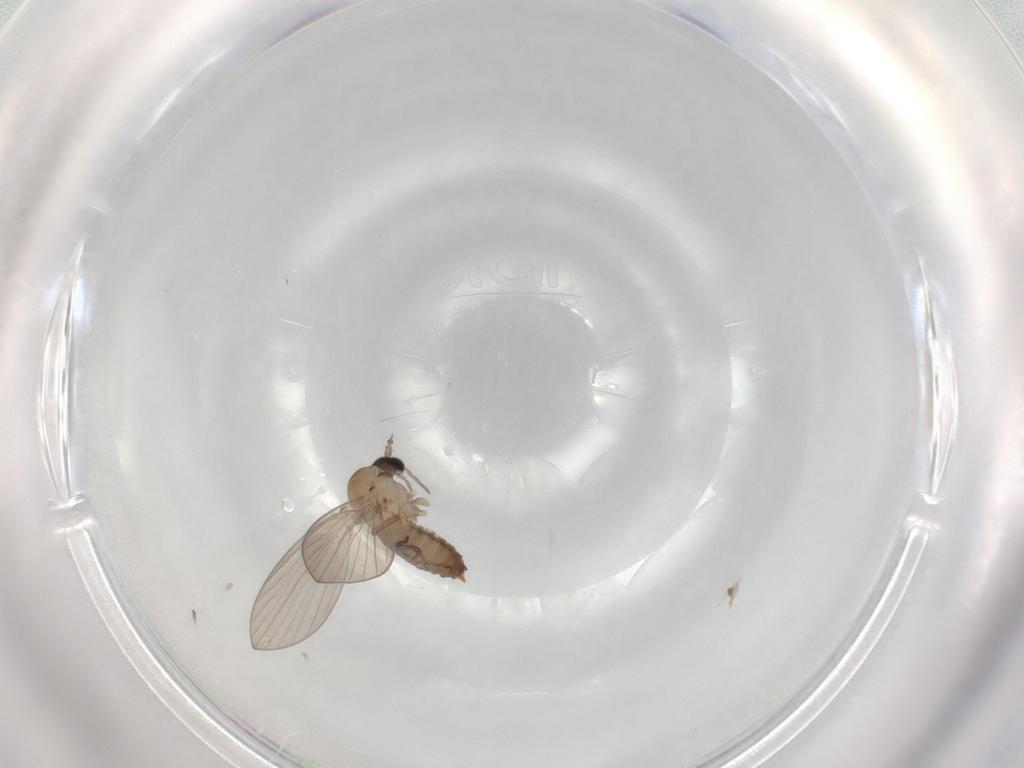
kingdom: Animalia
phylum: Arthropoda
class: Insecta
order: Diptera
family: Psychodidae
